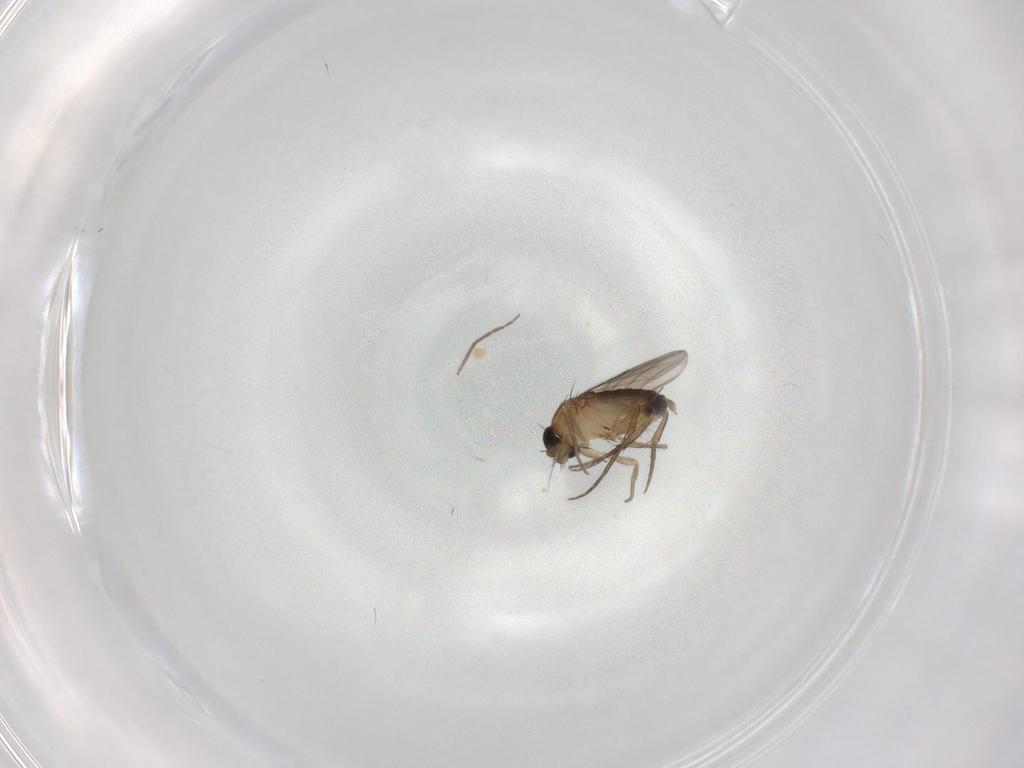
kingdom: Animalia
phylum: Arthropoda
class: Insecta
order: Diptera
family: Phoridae
